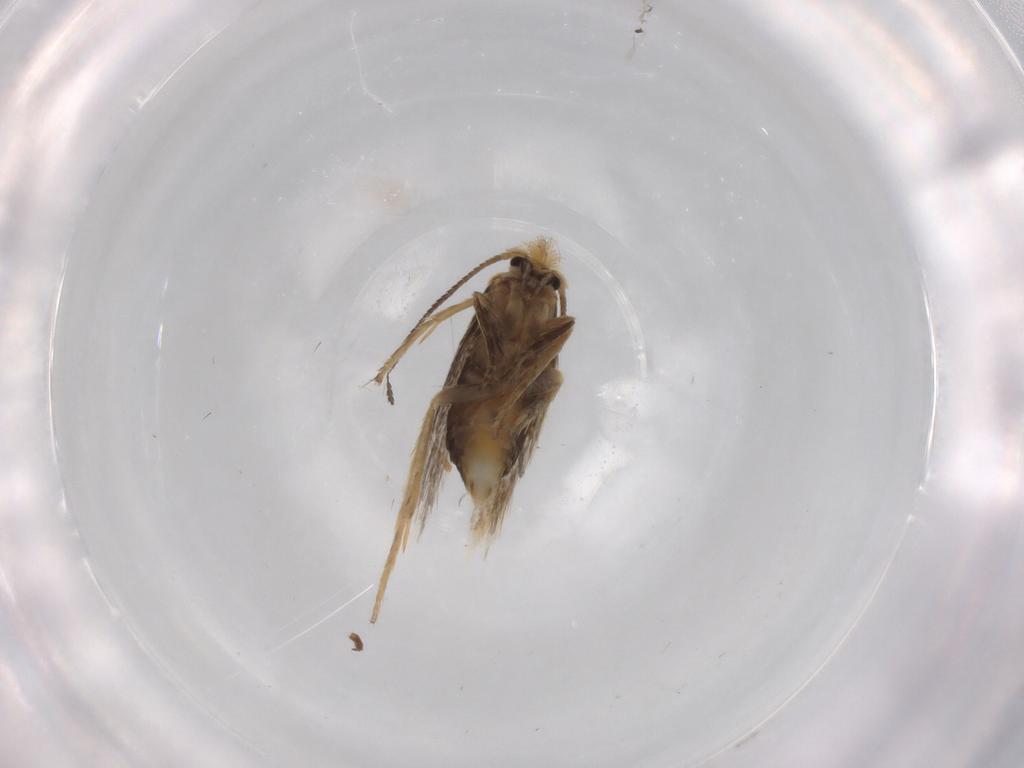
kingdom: Animalia
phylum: Arthropoda
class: Insecta
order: Lepidoptera
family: Nepticulidae
